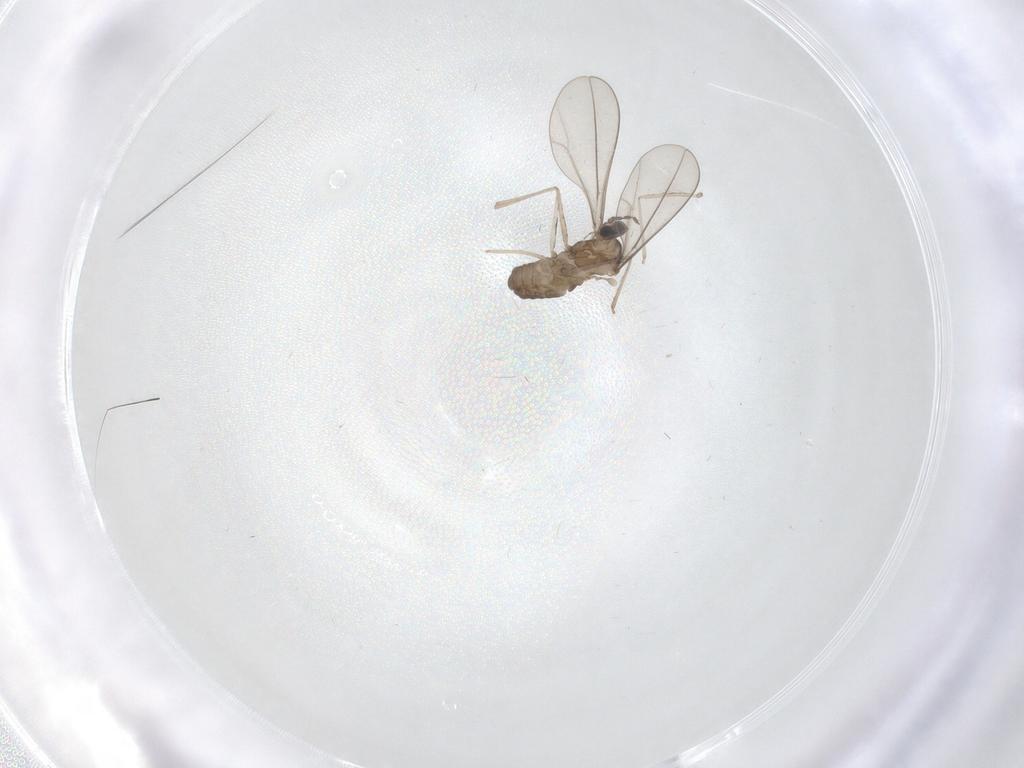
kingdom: Animalia
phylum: Arthropoda
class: Insecta
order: Diptera
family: Cecidomyiidae
